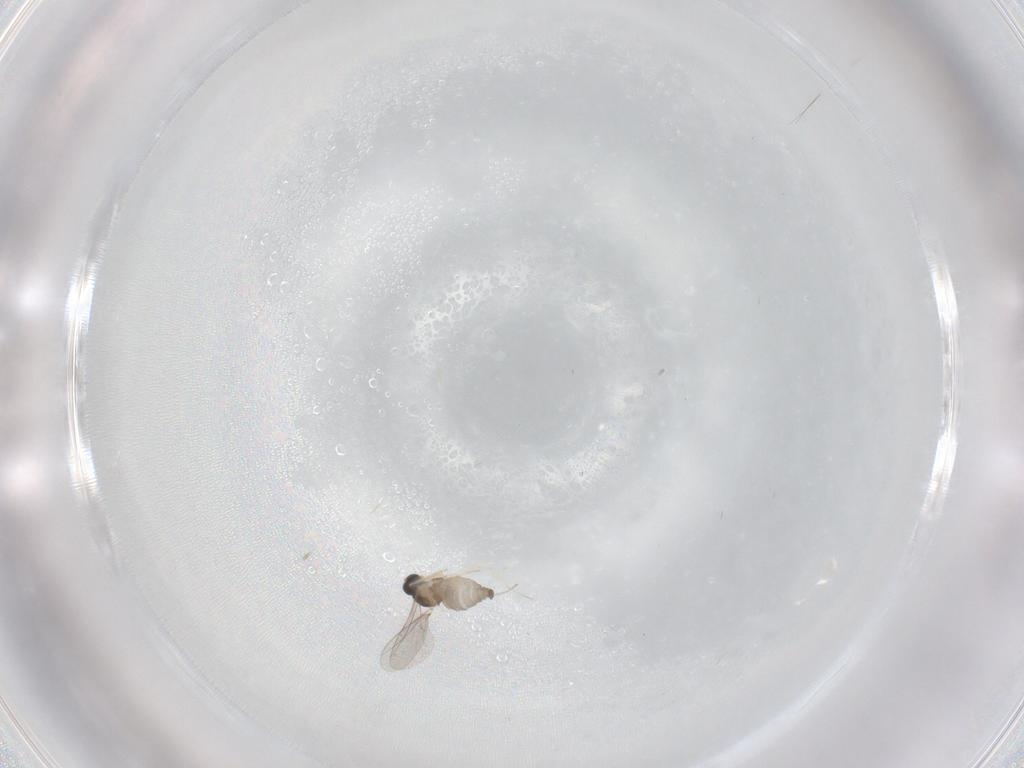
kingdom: Animalia
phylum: Arthropoda
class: Insecta
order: Diptera
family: Cecidomyiidae
